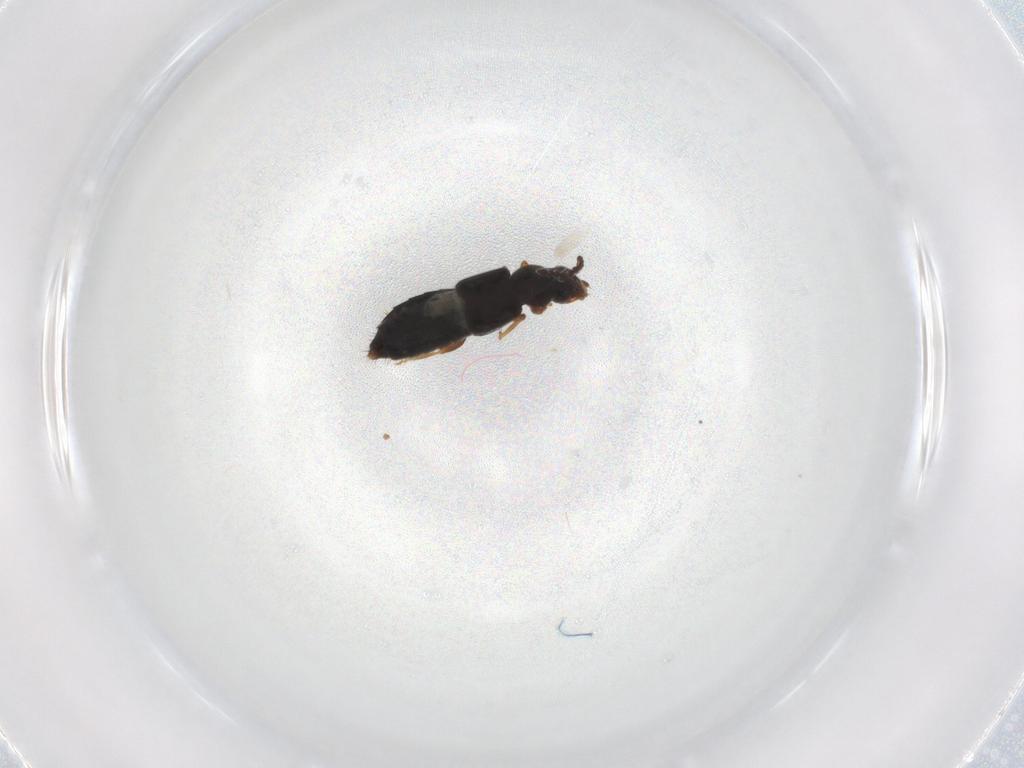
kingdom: Animalia
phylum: Arthropoda
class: Insecta
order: Coleoptera
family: Staphylinidae
